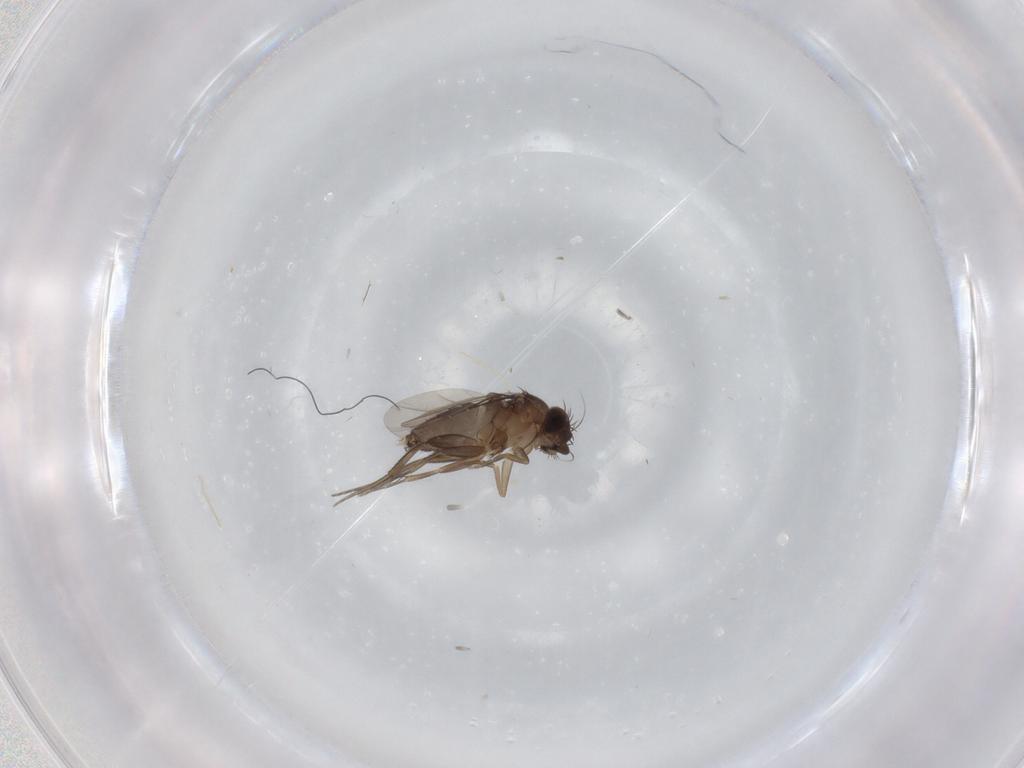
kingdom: Animalia
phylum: Arthropoda
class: Insecta
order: Diptera
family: Phoridae
